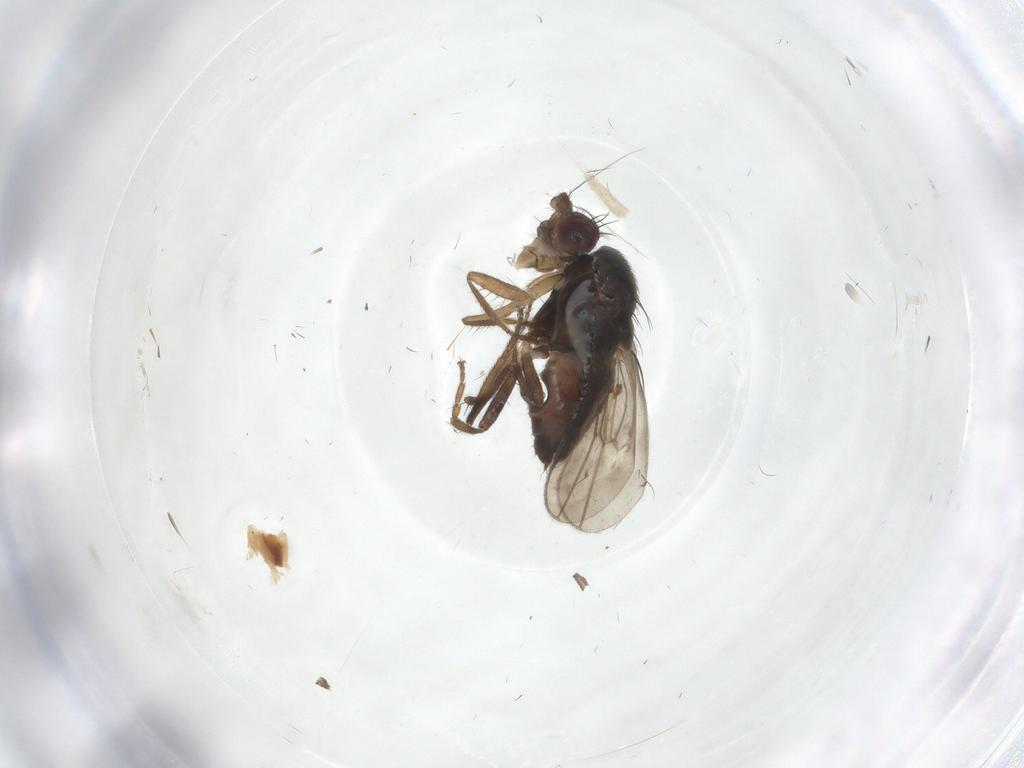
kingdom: Animalia
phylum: Arthropoda
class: Insecta
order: Diptera
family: Sphaeroceridae
